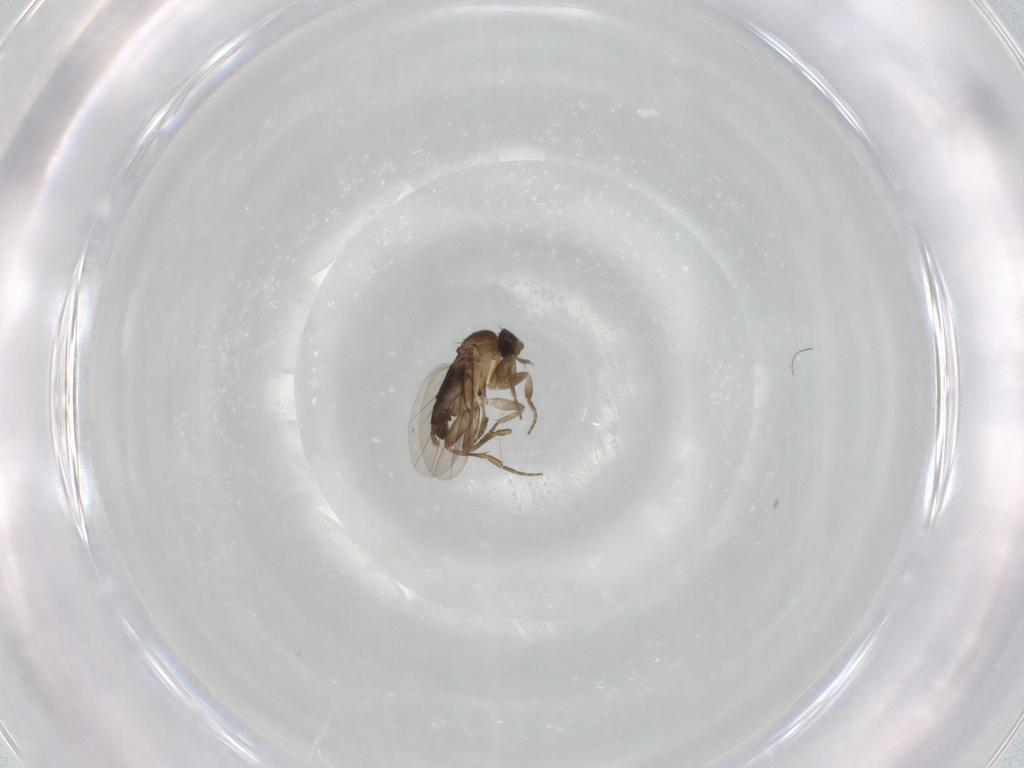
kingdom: Animalia
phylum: Arthropoda
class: Insecta
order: Diptera
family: Phoridae
